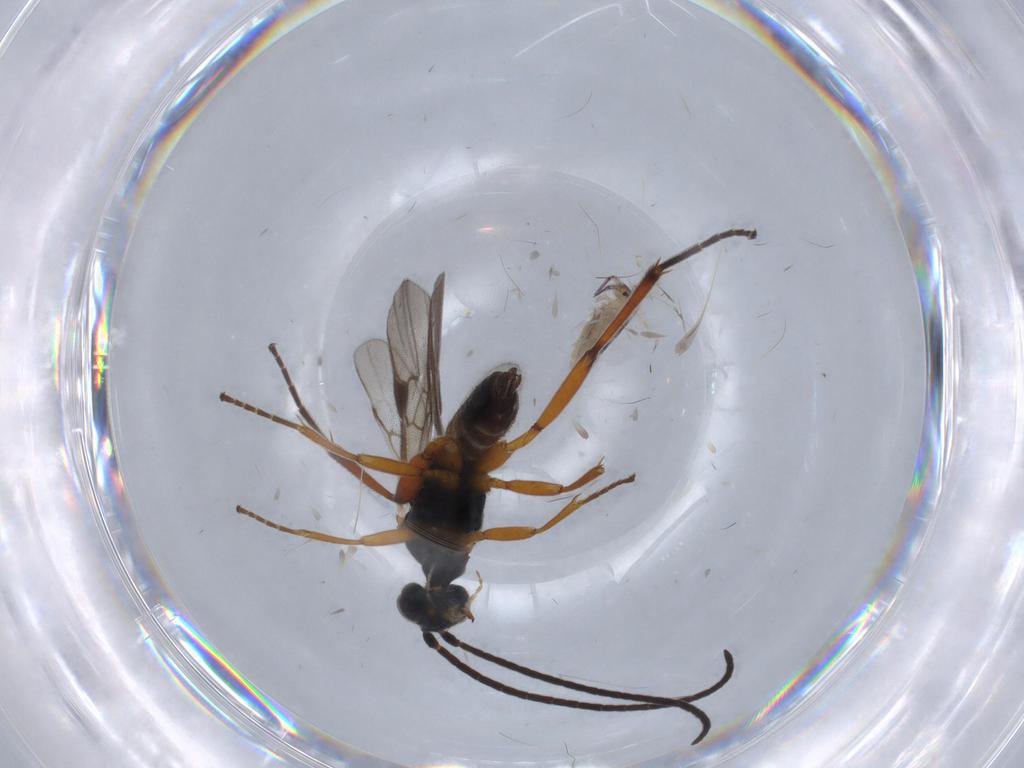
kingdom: Animalia
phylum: Arthropoda
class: Insecta
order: Hymenoptera
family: Braconidae
